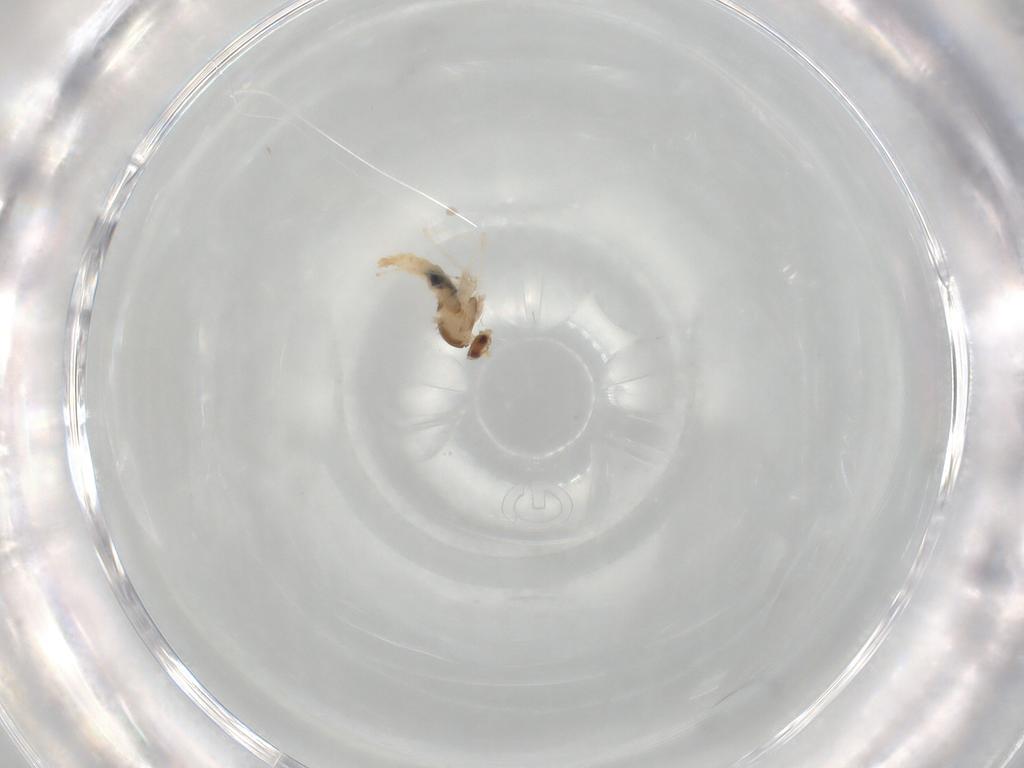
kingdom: Animalia
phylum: Arthropoda
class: Insecta
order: Diptera
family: Cecidomyiidae
